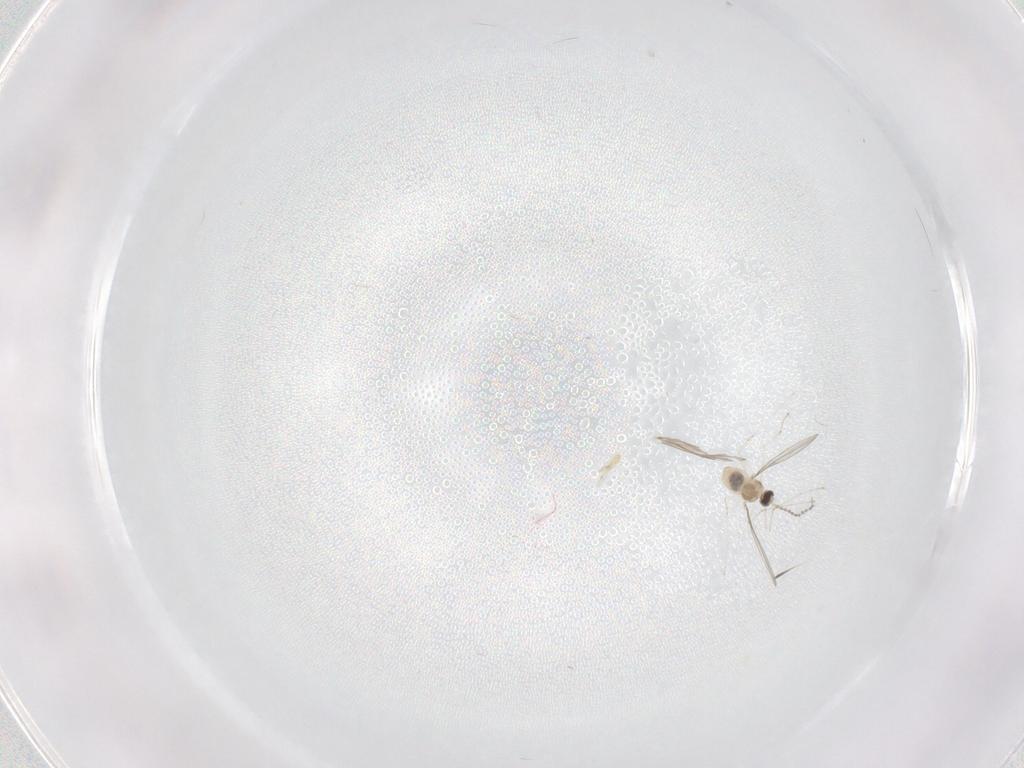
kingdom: Animalia
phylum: Arthropoda
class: Insecta
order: Diptera
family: Cecidomyiidae
